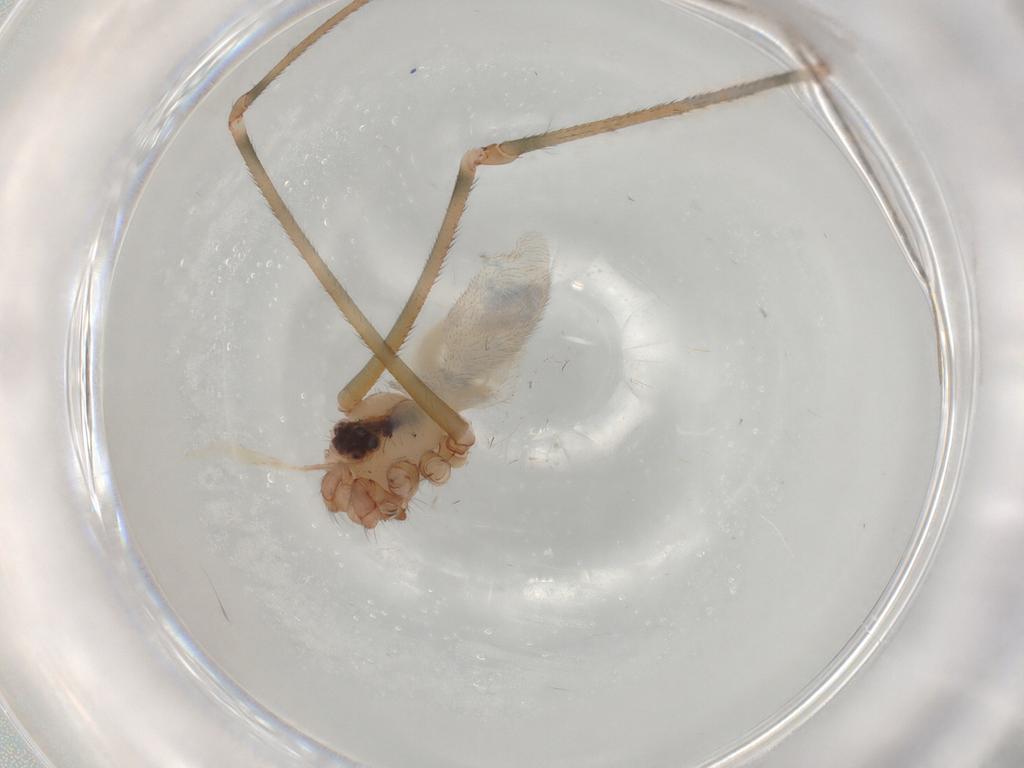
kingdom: Animalia
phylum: Arthropoda
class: Arachnida
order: Araneae
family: Pholcidae
